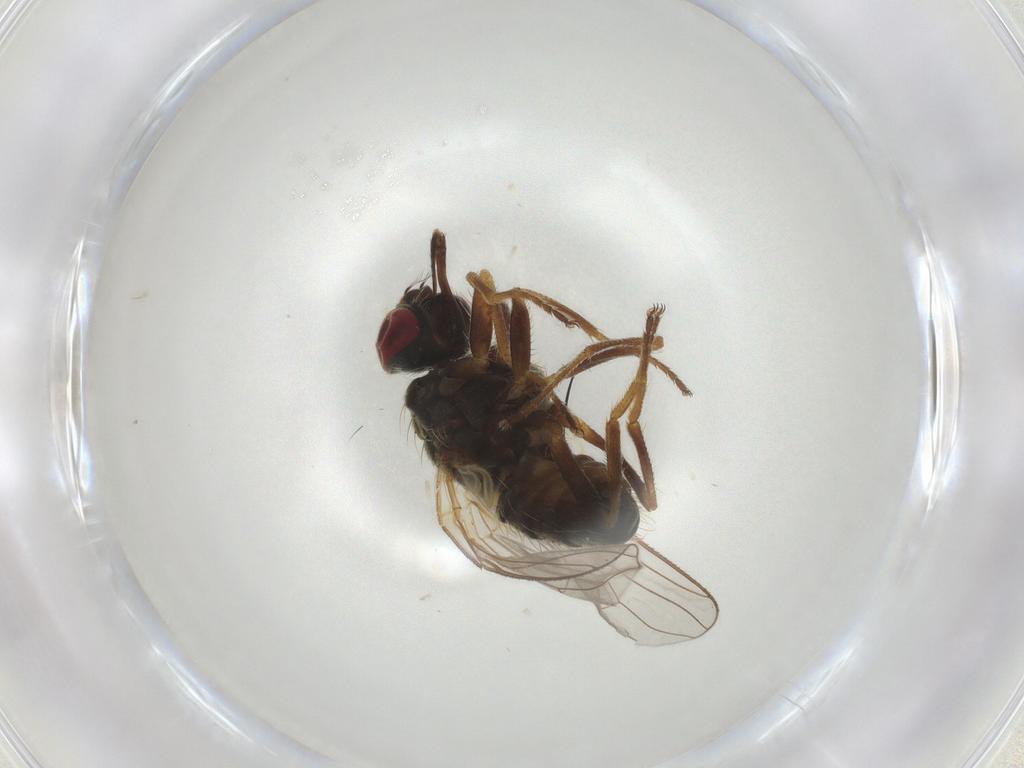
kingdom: Animalia
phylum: Arthropoda
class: Insecta
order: Diptera
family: Muscidae
